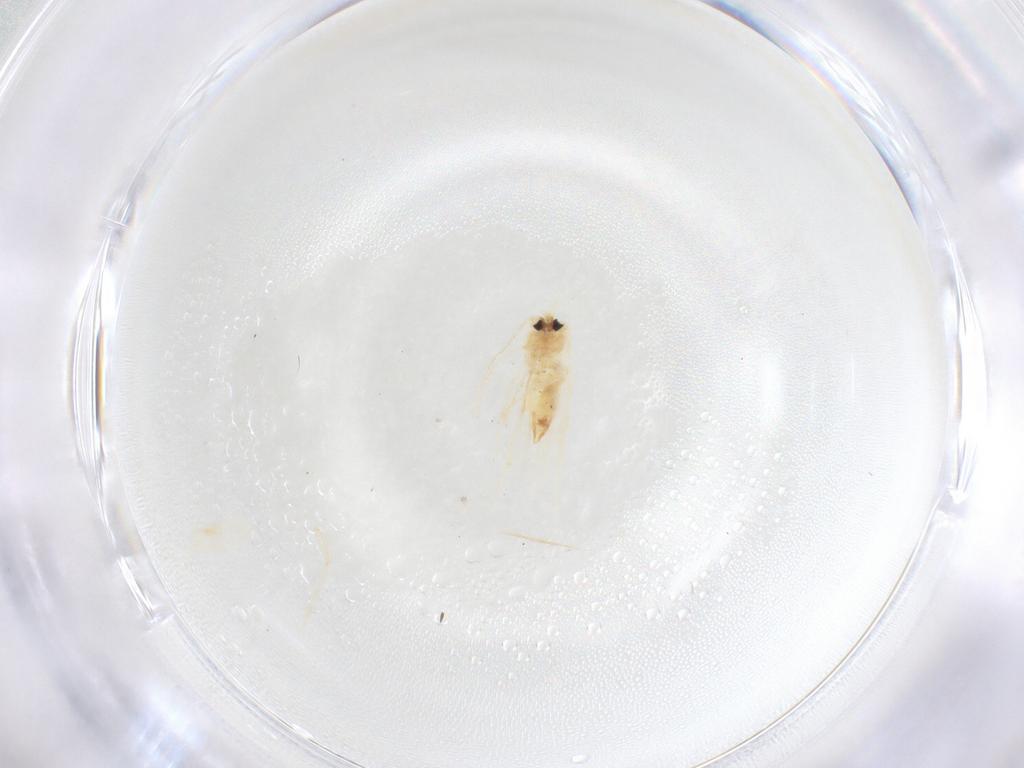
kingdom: Animalia
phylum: Arthropoda
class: Insecta
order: Lepidoptera
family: Nepticulidae
